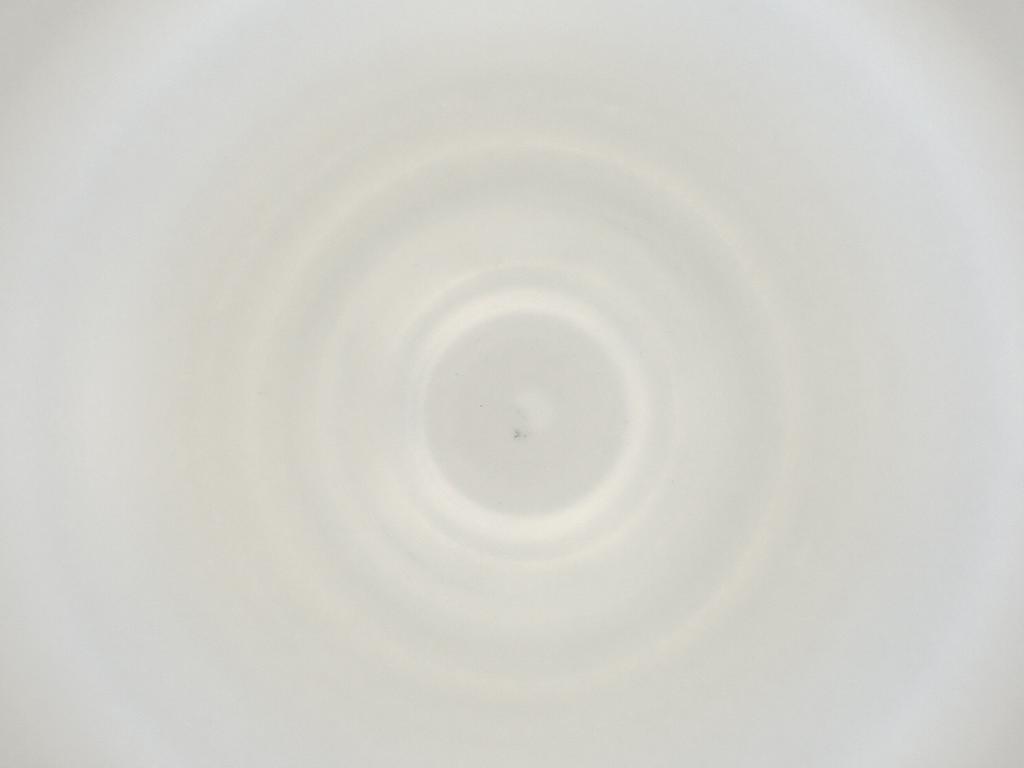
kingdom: Animalia
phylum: Arthropoda
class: Insecta
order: Diptera
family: Cecidomyiidae
